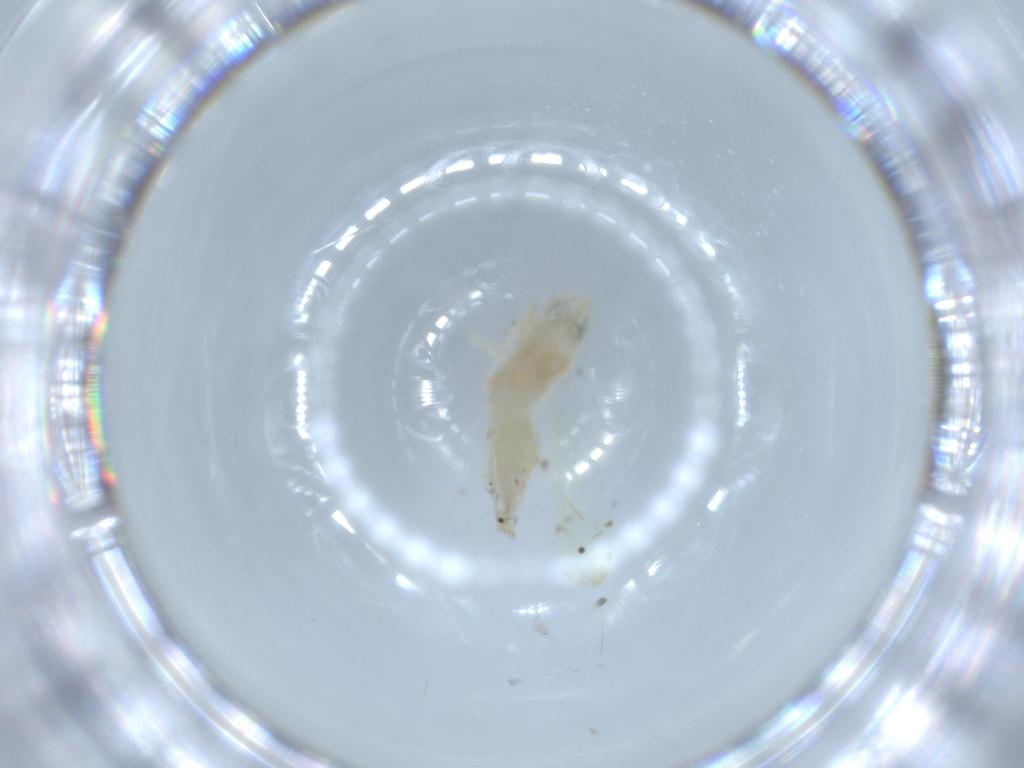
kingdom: Animalia
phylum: Arthropoda
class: Insecta
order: Hemiptera
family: Cicadellidae
